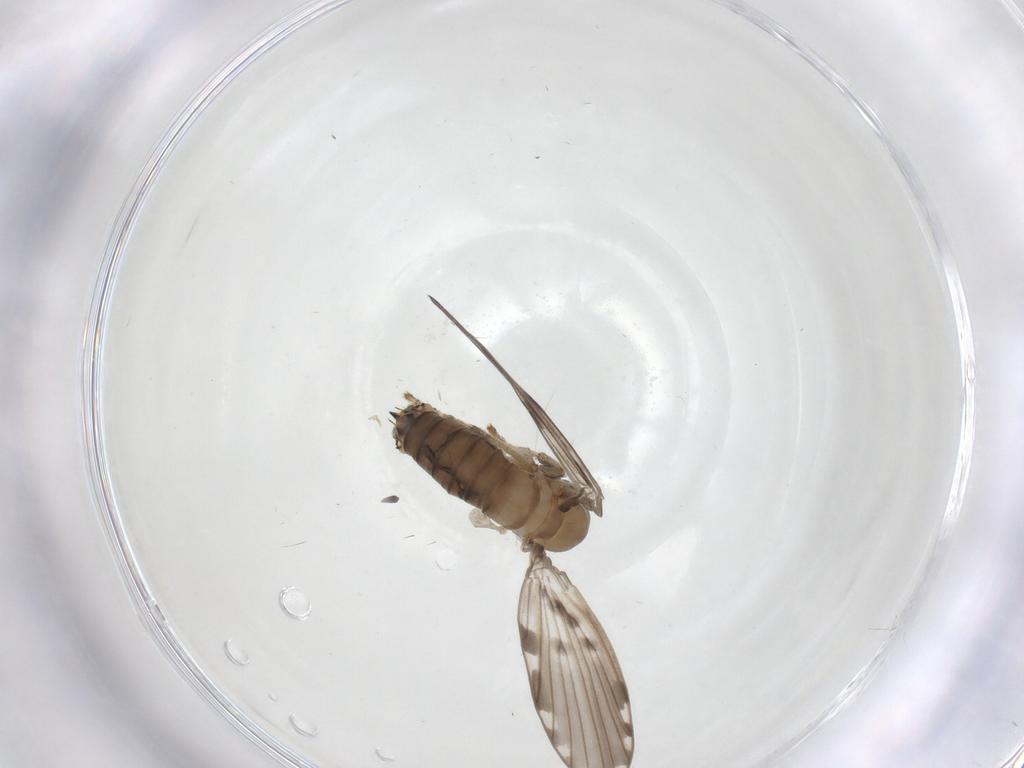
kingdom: Animalia
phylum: Arthropoda
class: Insecta
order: Diptera
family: Psychodidae
